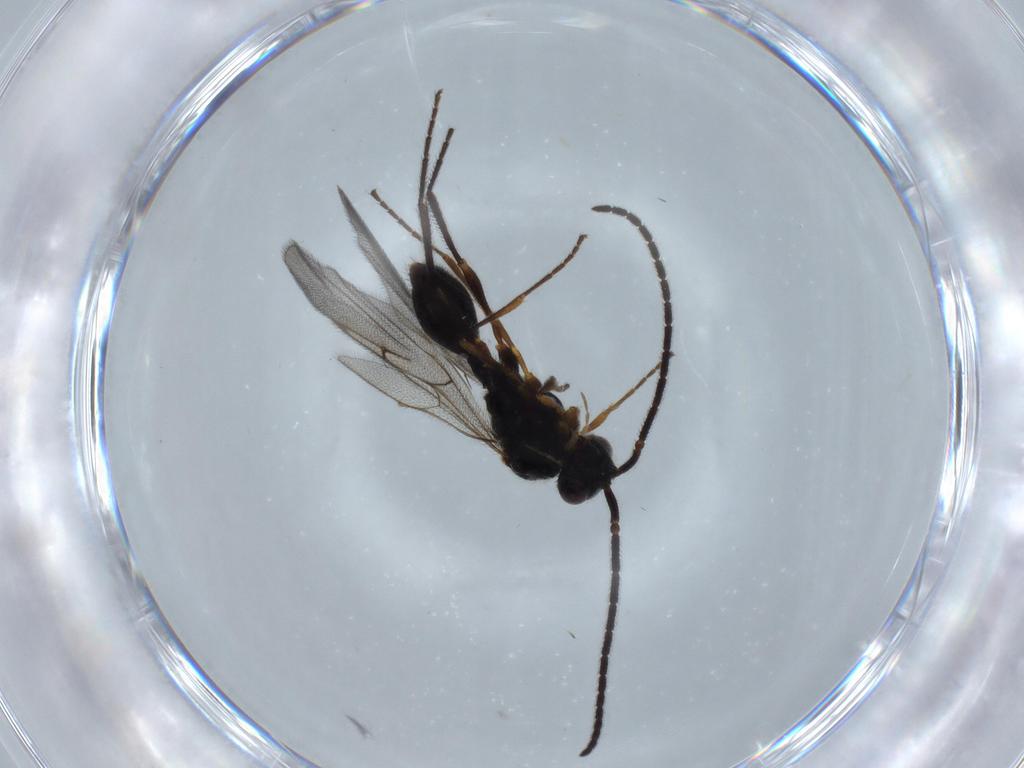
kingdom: Animalia
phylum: Arthropoda
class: Insecta
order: Hymenoptera
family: Diapriidae
